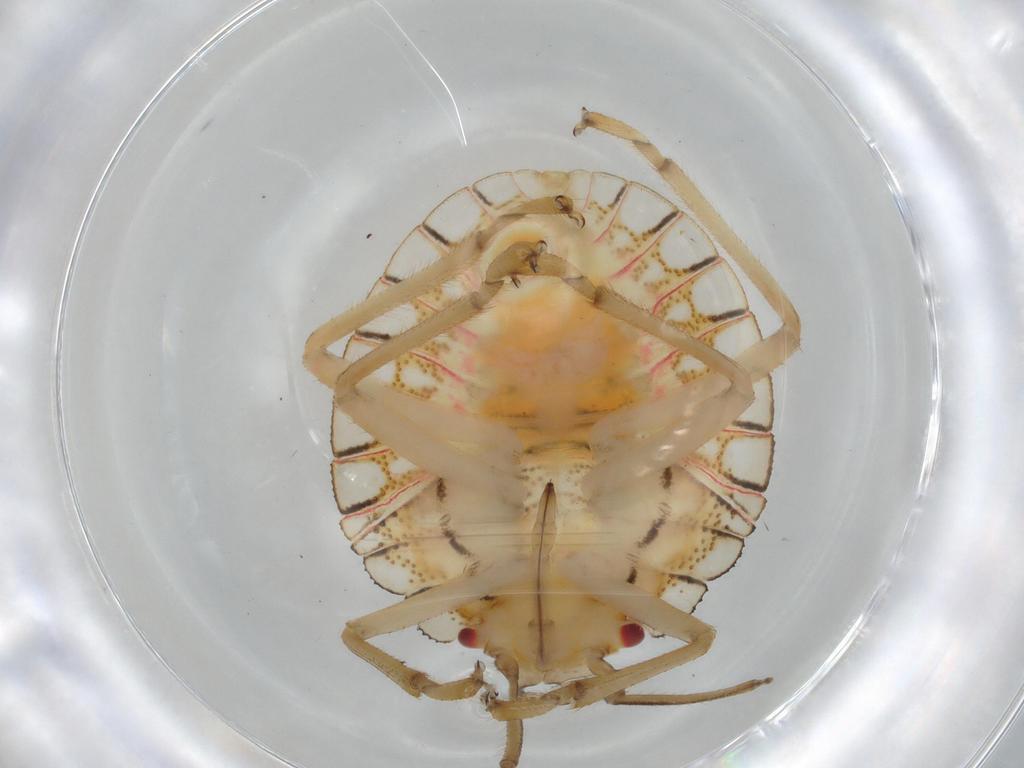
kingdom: Animalia
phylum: Arthropoda
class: Insecta
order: Hemiptera
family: Pentatomidae
